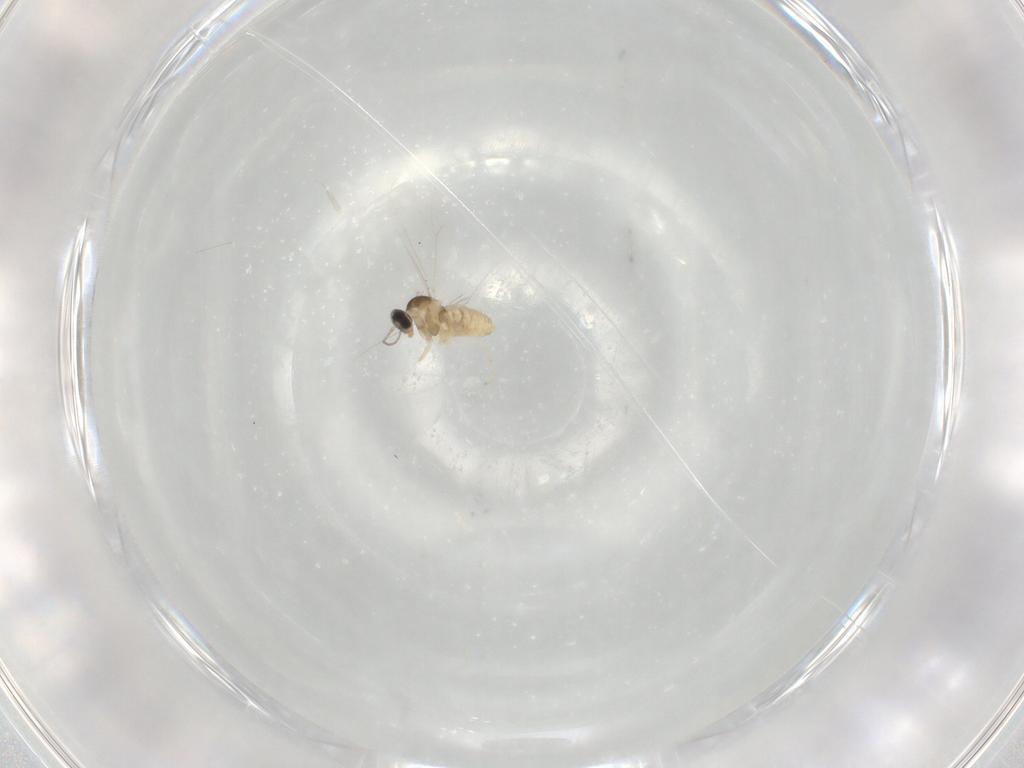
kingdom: Animalia
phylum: Arthropoda
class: Insecta
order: Diptera
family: Cecidomyiidae
